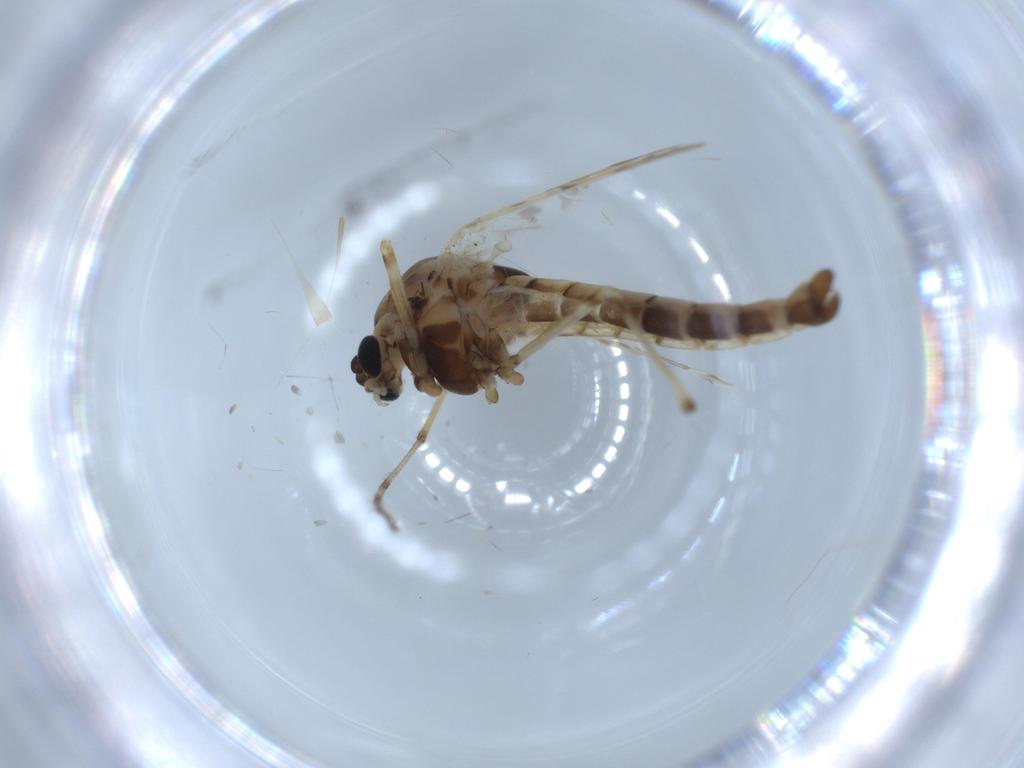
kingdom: Animalia
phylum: Arthropoda
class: Insecta
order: Diptera
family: Chironomidae
